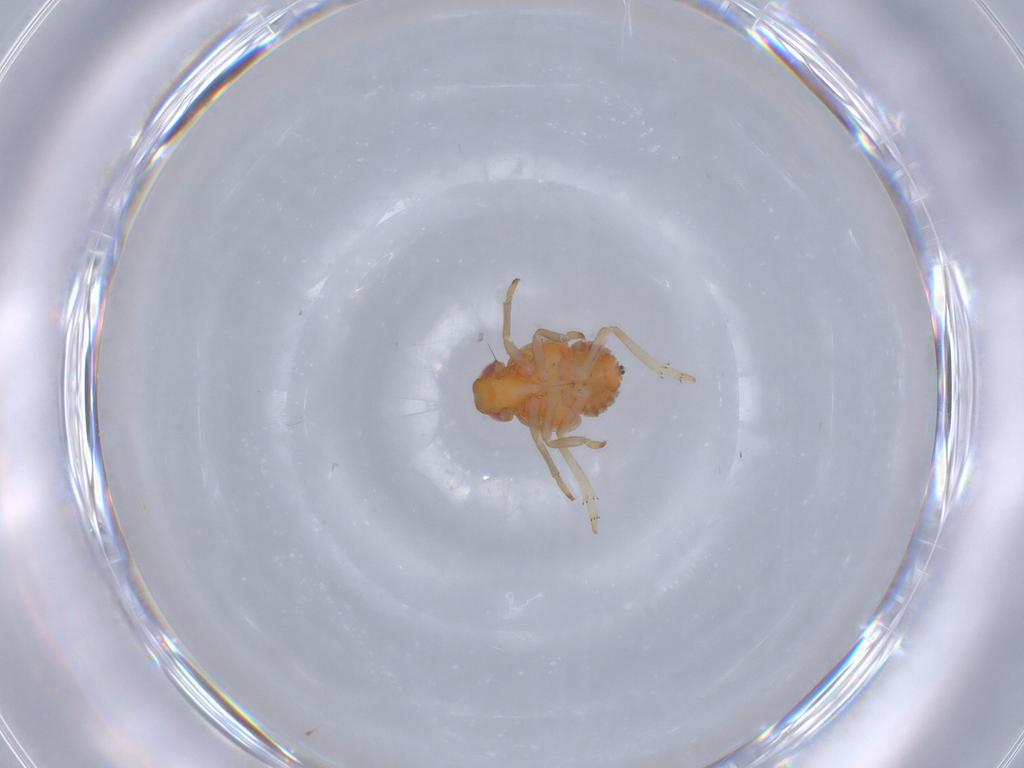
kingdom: Animalia
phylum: Arthropoda
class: Insecta
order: Hemiptera
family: Fulgoroidea_incertae_sedis
